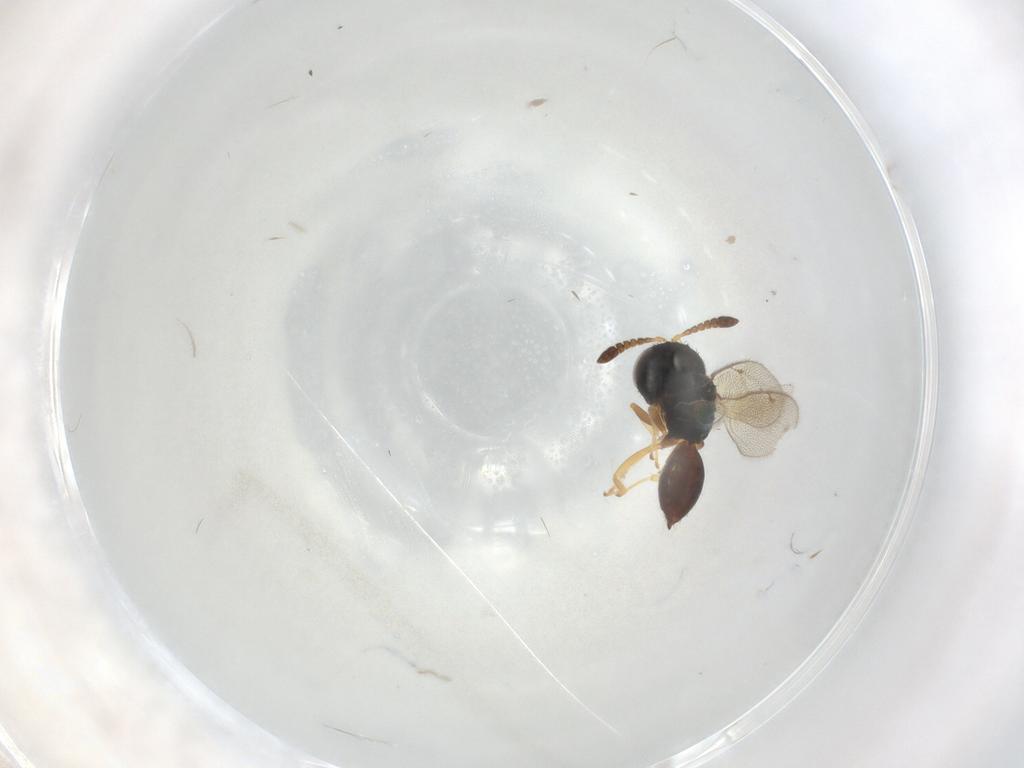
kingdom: Animalia
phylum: Arthropoda
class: Insecta
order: Hymenoptera
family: Pteromalidae
